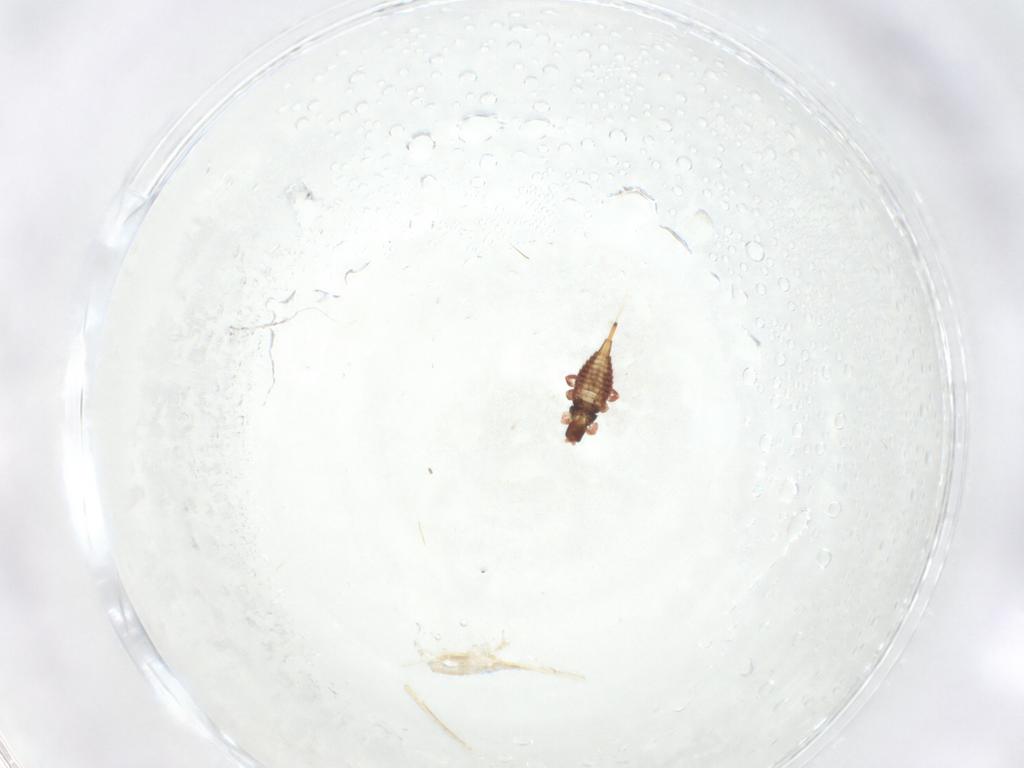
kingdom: Animalia
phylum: Arthropoda
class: Insecta
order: Thysanoptera
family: Phlaeothripidae
